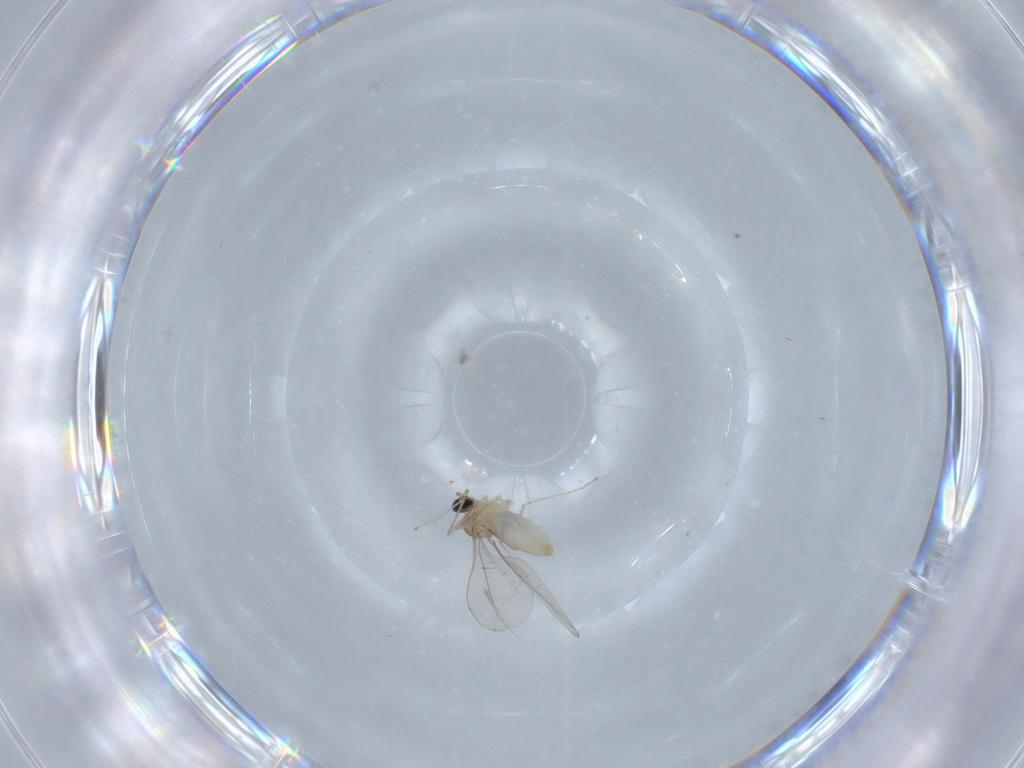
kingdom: Animalia
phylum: Arthropoda
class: Insecta
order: Diptera
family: Cecidomyiidae
